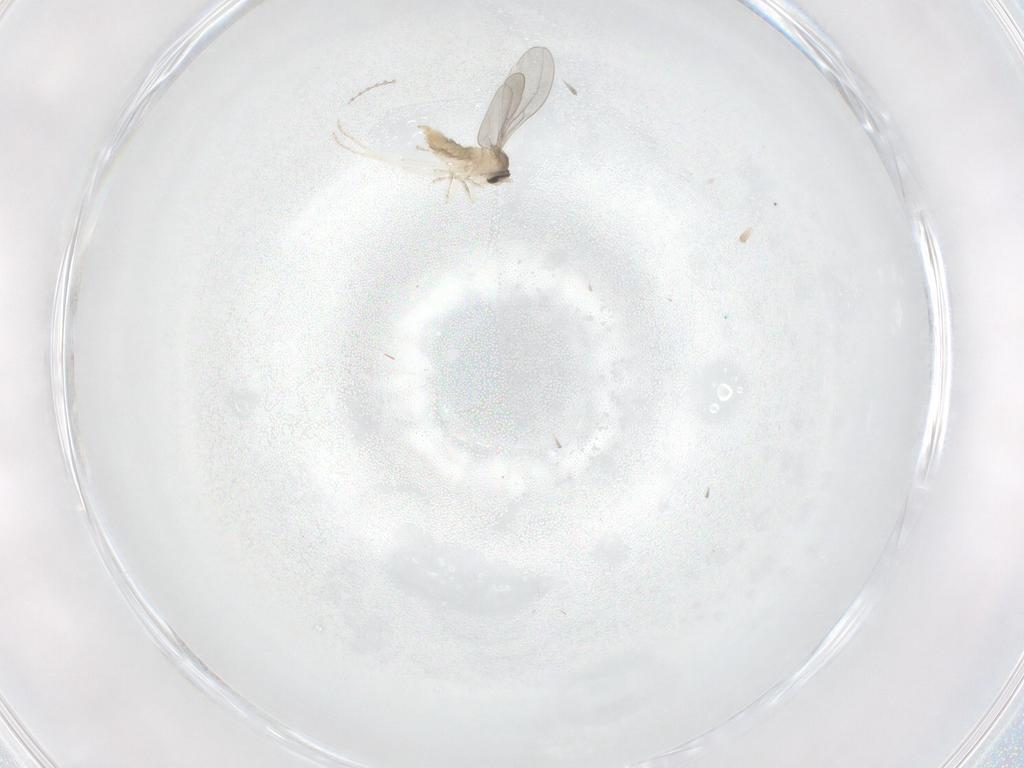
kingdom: Animalia
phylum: Arthropoda
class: Insecta
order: Diptera
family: Cecidomyiidae
